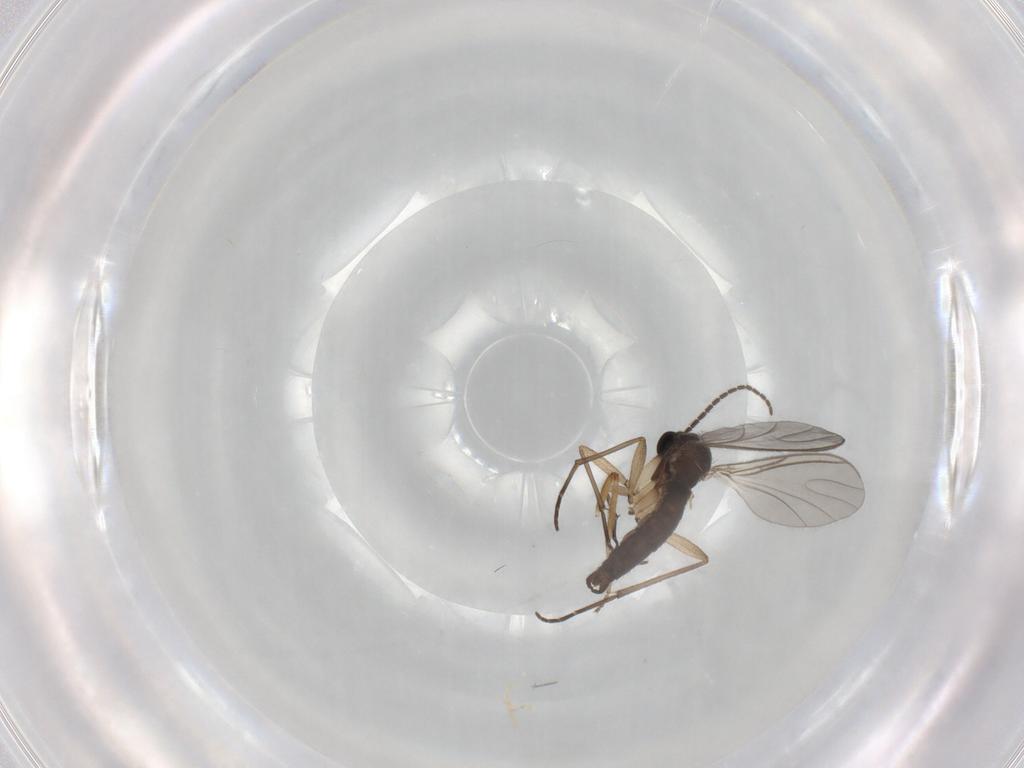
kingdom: Animalia
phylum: Arthropoda
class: Insecta
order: Diptera
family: Ceratopogonidae
